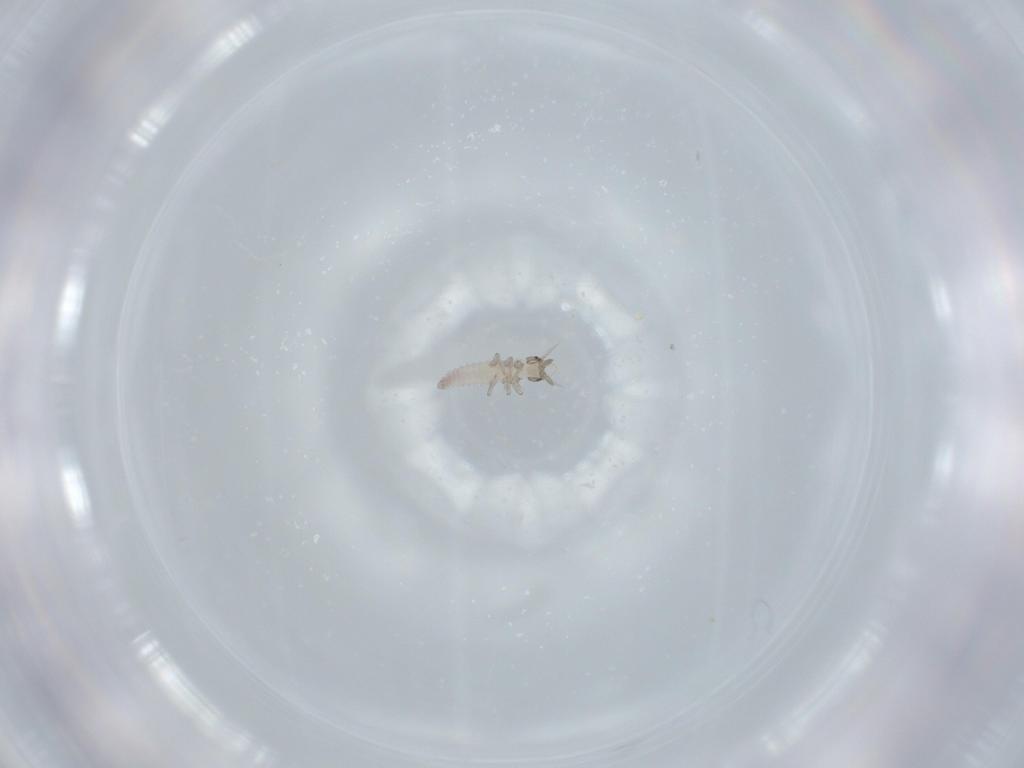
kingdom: Animalia
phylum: Arthropoda
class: Insecta
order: Neuroptera
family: Hemerobiidae
